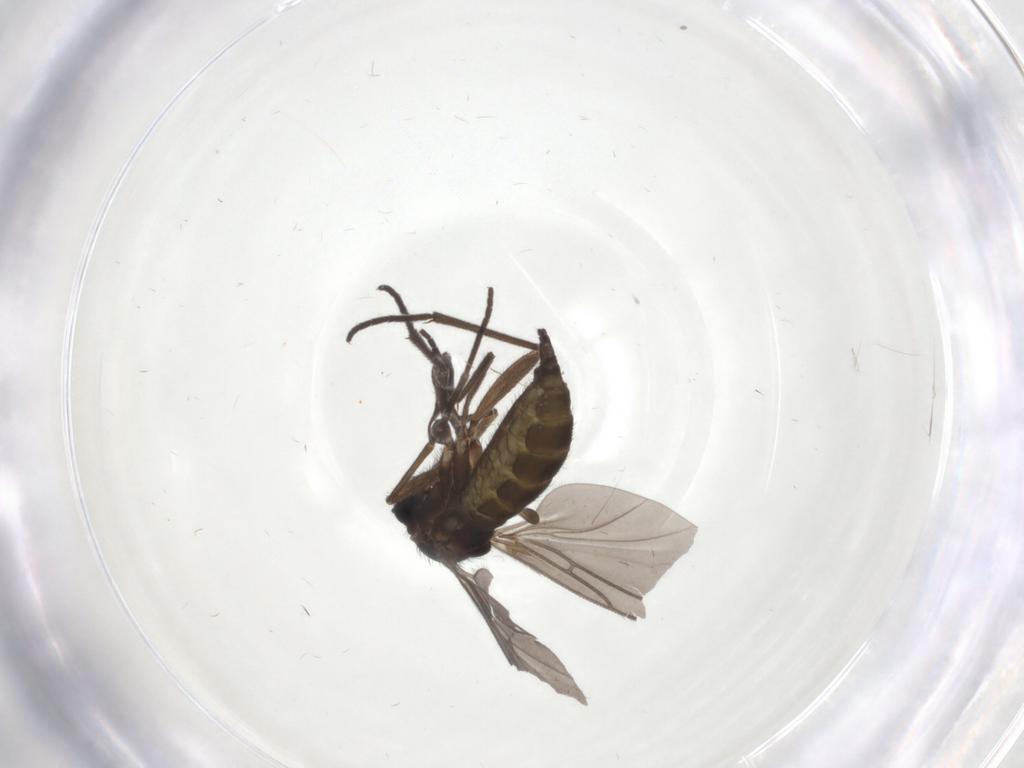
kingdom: Animalia
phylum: Arthropoda
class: Insecta
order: Diptera
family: Sciaridae
